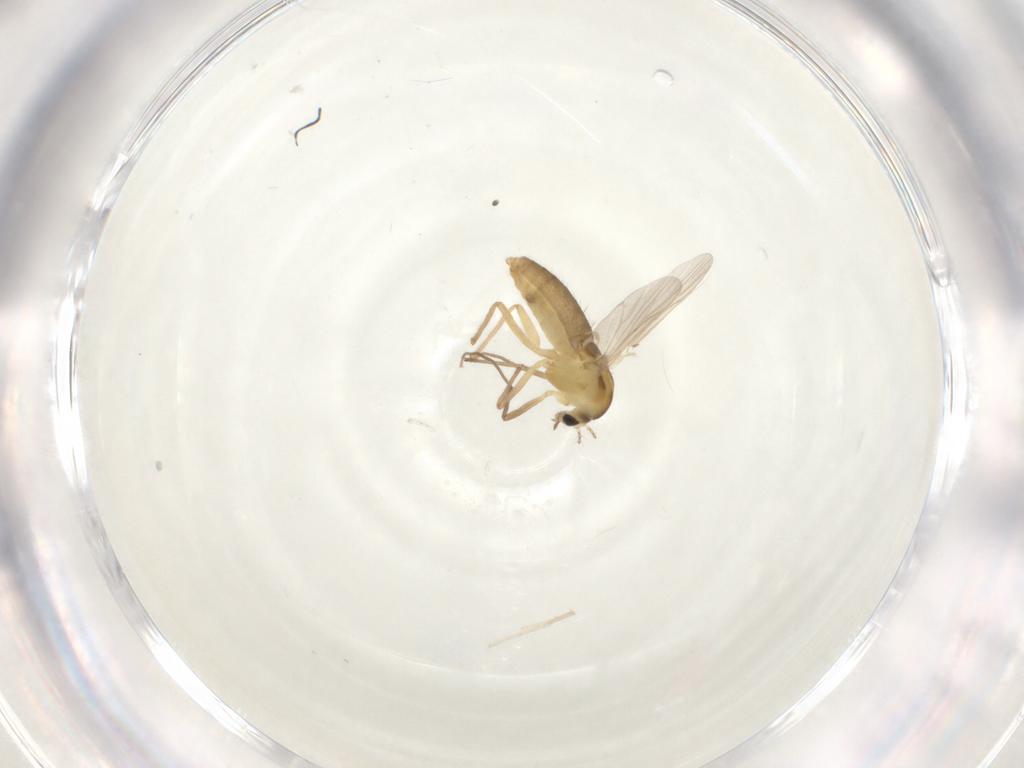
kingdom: Animalia
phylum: Arthropoda
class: Insecta
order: Diptera
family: Chironomidae
